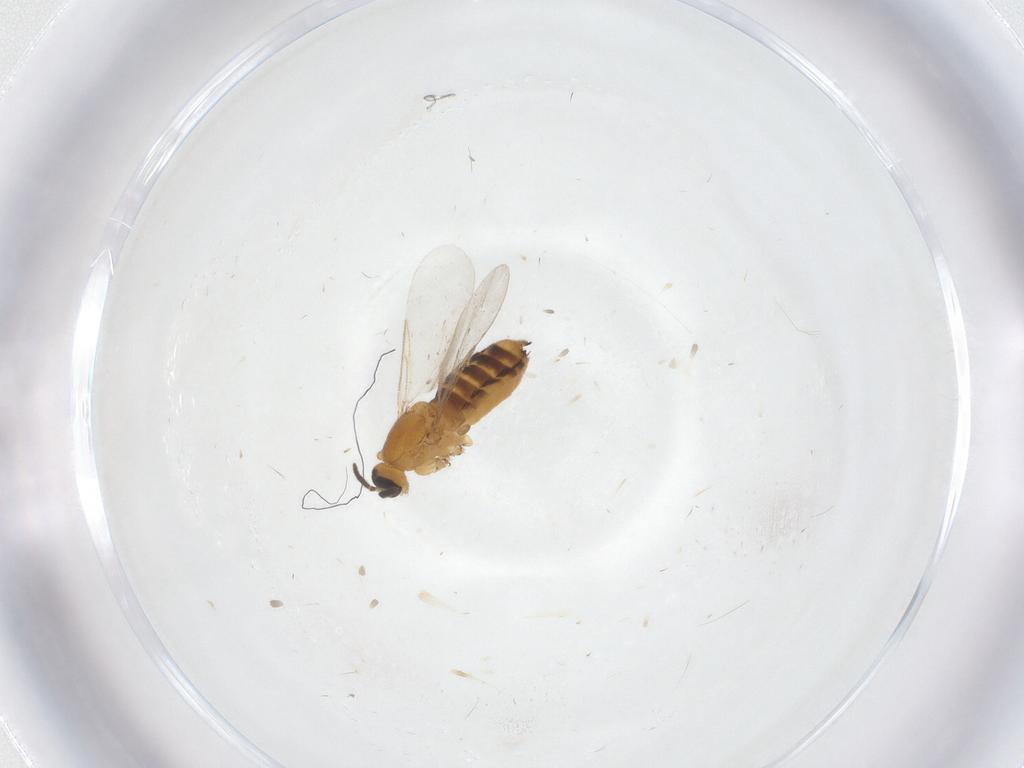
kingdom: Animalia
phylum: Arthropoda
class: Insecta
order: Diptera
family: Scatopsidae
